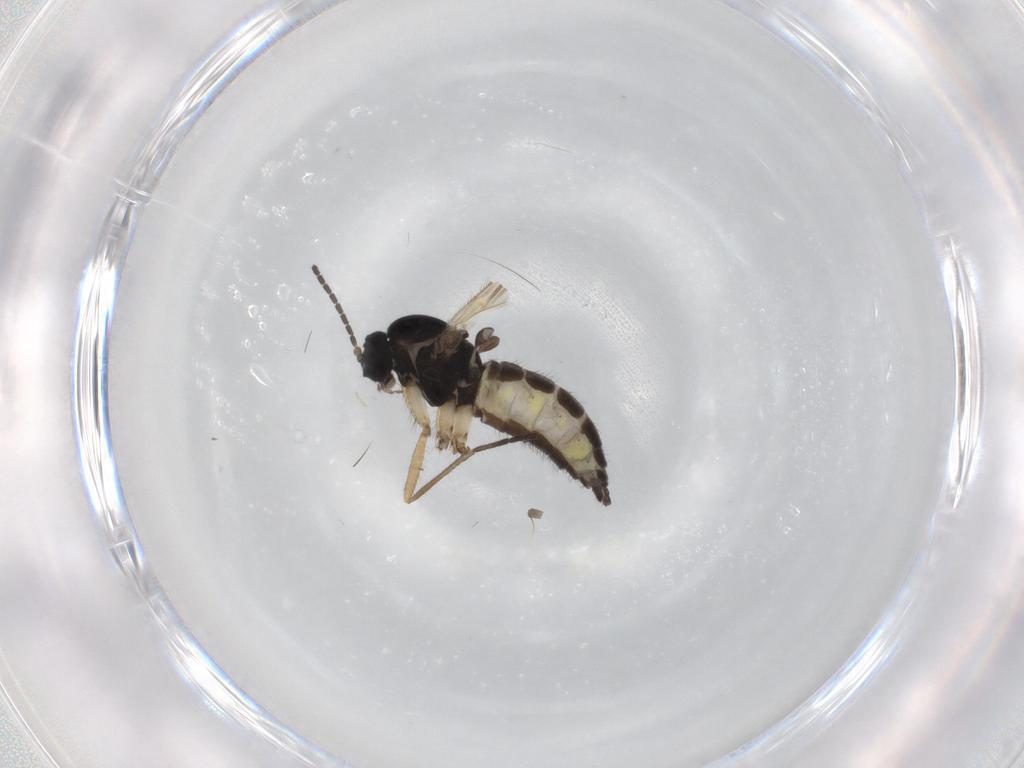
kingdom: Animalia
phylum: Arthropoda
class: Insecta
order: Diptera
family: Sciaridae
